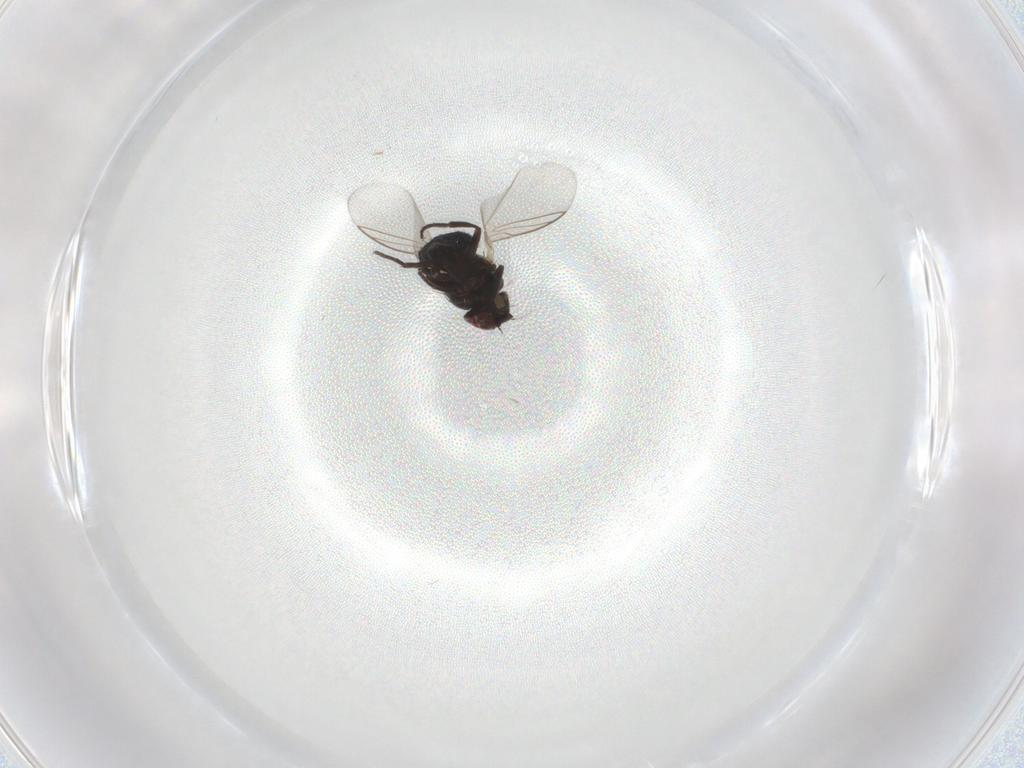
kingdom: Animalia
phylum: Arthropoda
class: Insecta
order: Diptera
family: Agromyzidae
